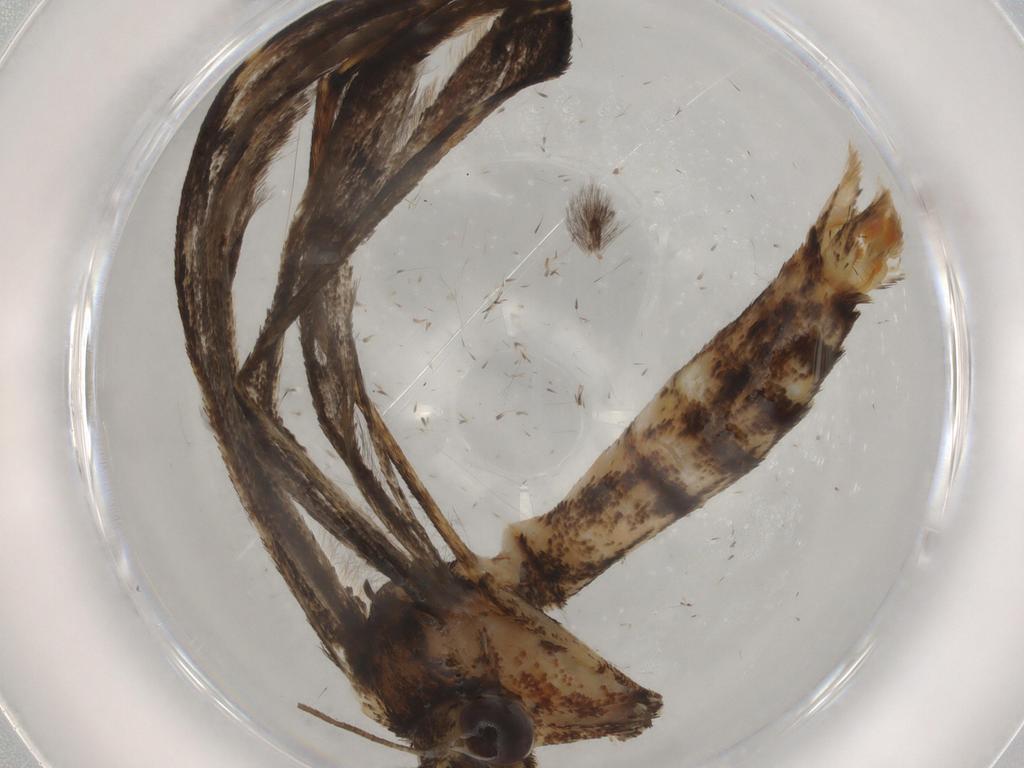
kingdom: Animalia
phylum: Arthropoda
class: Insecta
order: Lepidoptera
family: Pterophoridae
